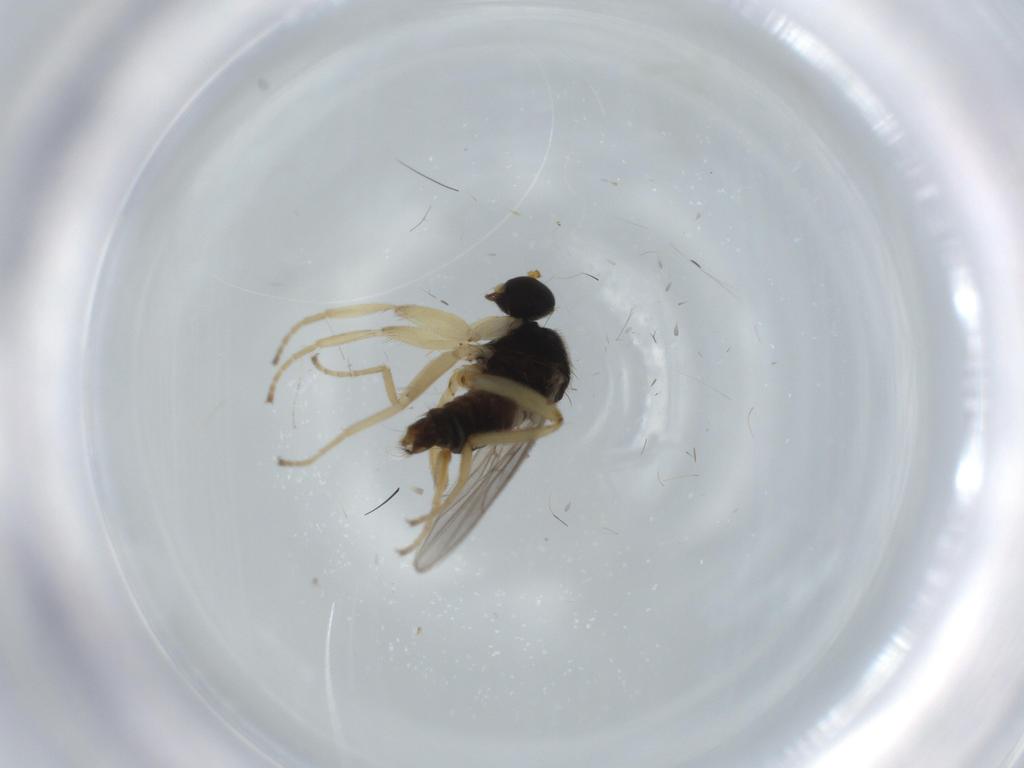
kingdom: Animalia
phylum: Arthropoda
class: Insecta
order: Diptera
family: Hybotidae
